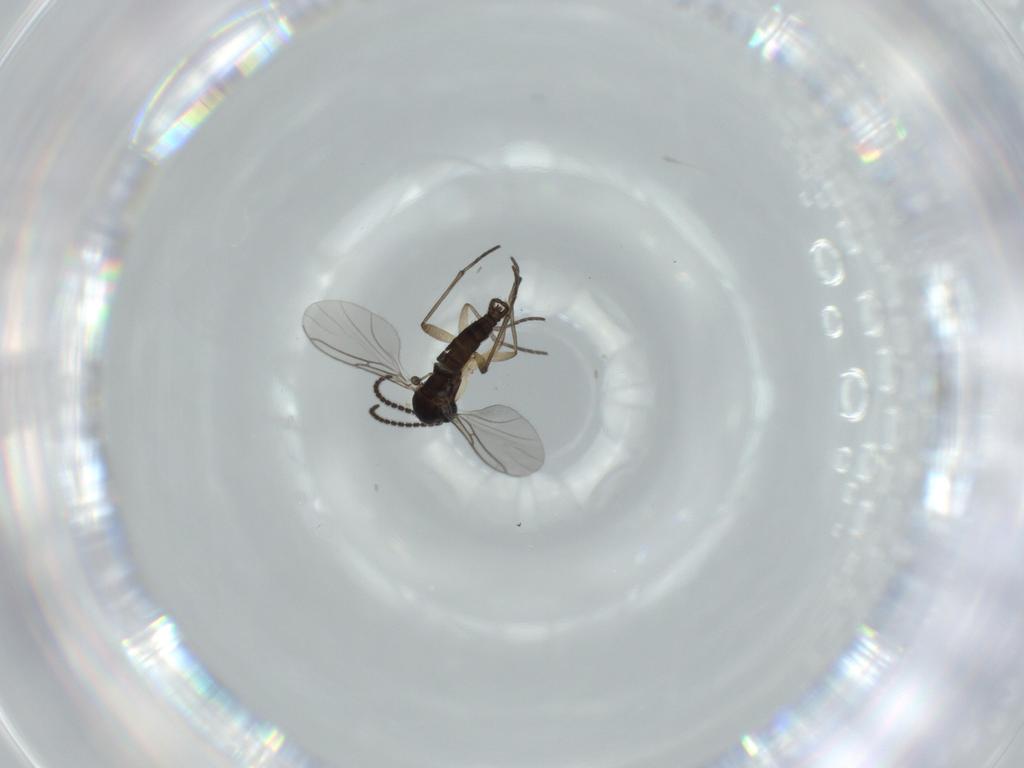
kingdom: Animalia
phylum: Arthropoda
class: Insecta
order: Diptera
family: Sciaridae
